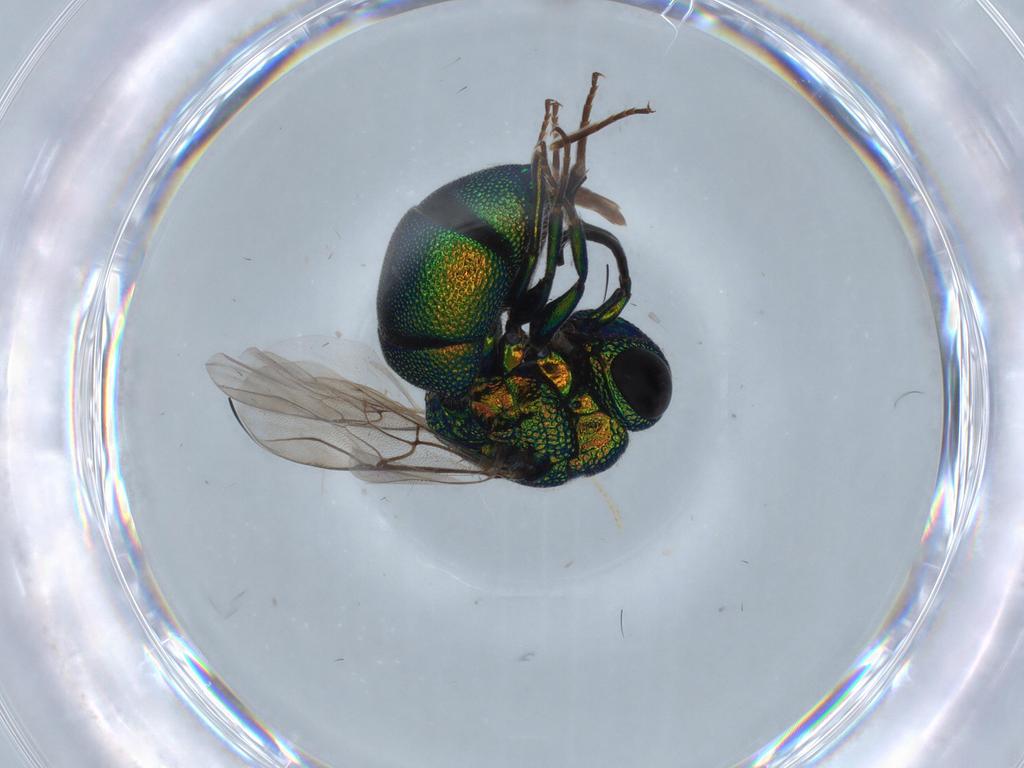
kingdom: Animalia
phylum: Arthropoda
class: Insecta
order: Hymenoptera
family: Chrysididae
